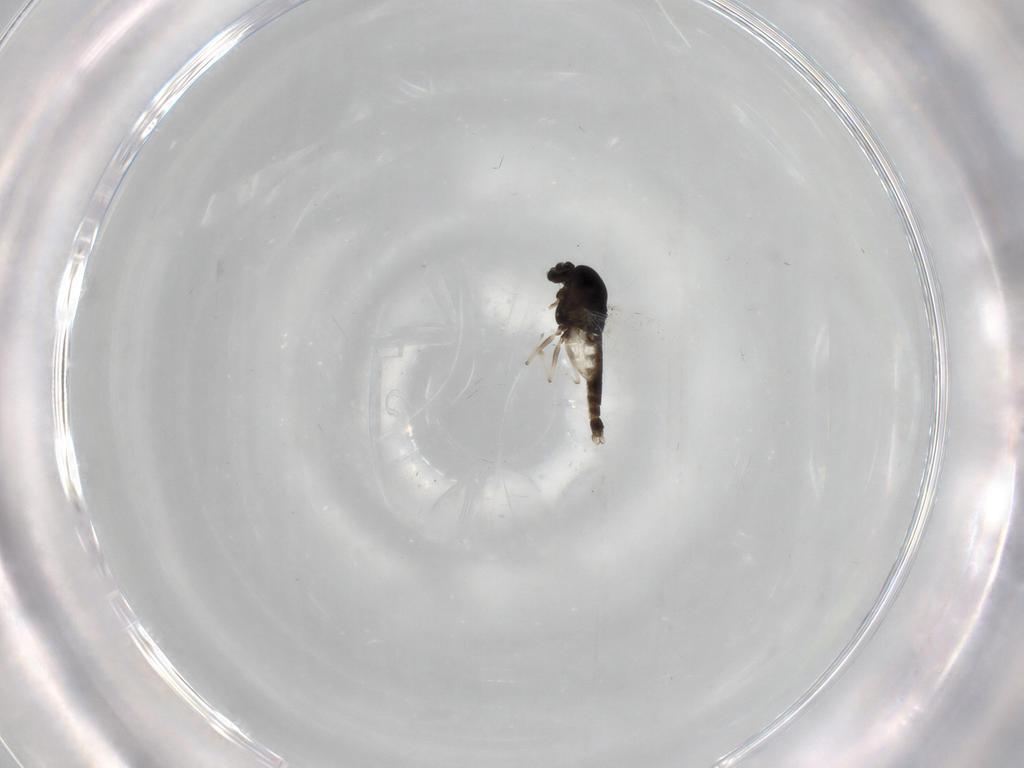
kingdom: Animalia
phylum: Arthropoda
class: Insecta
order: Diptera
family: Chironomidae
